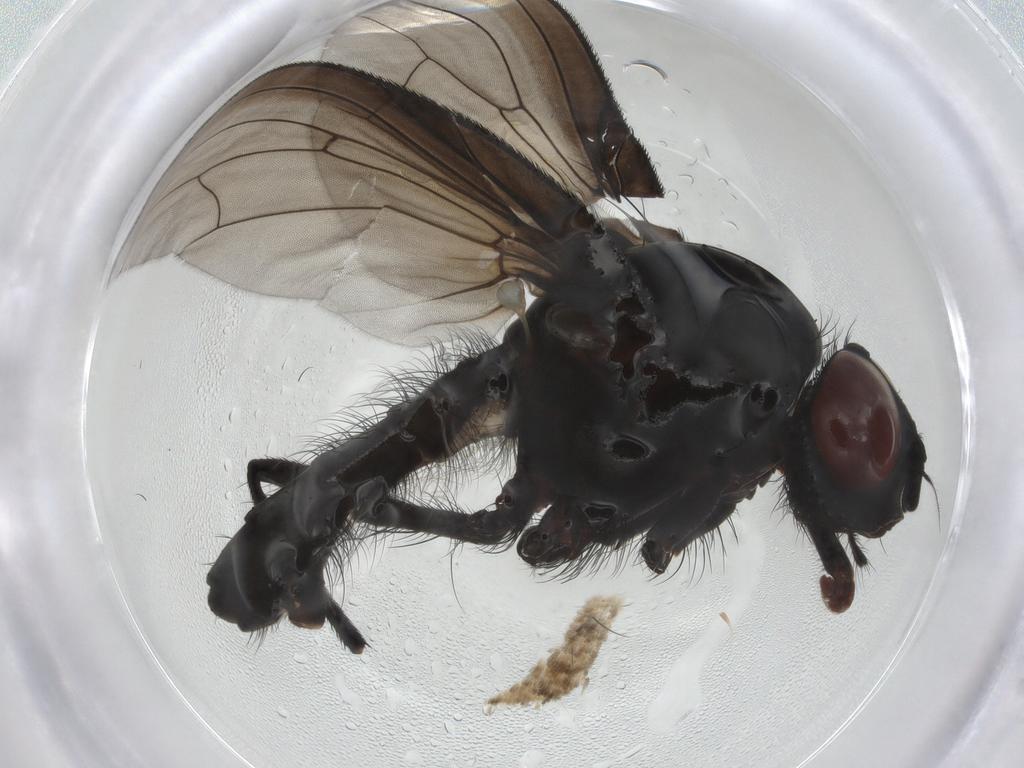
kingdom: Animalia
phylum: Arthropoda
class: Insecta
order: Diptera
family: Anthomyiidae
